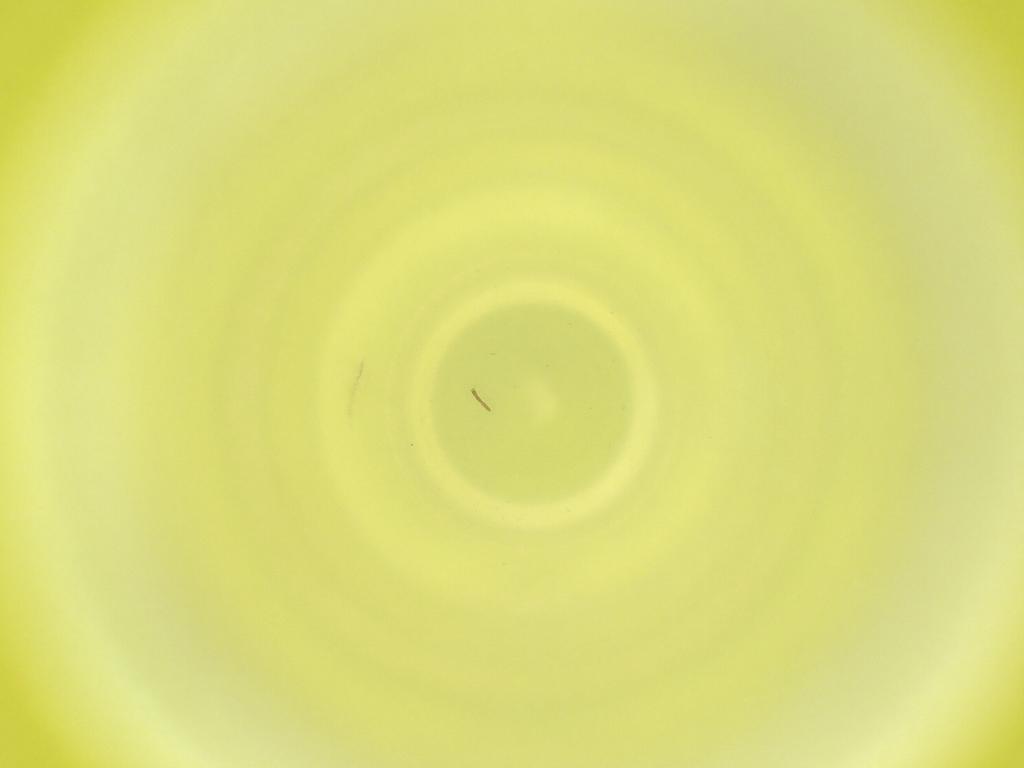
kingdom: Animalia
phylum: Arthropoda
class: Insecta
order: Diptera
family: Cecidomyiidae
